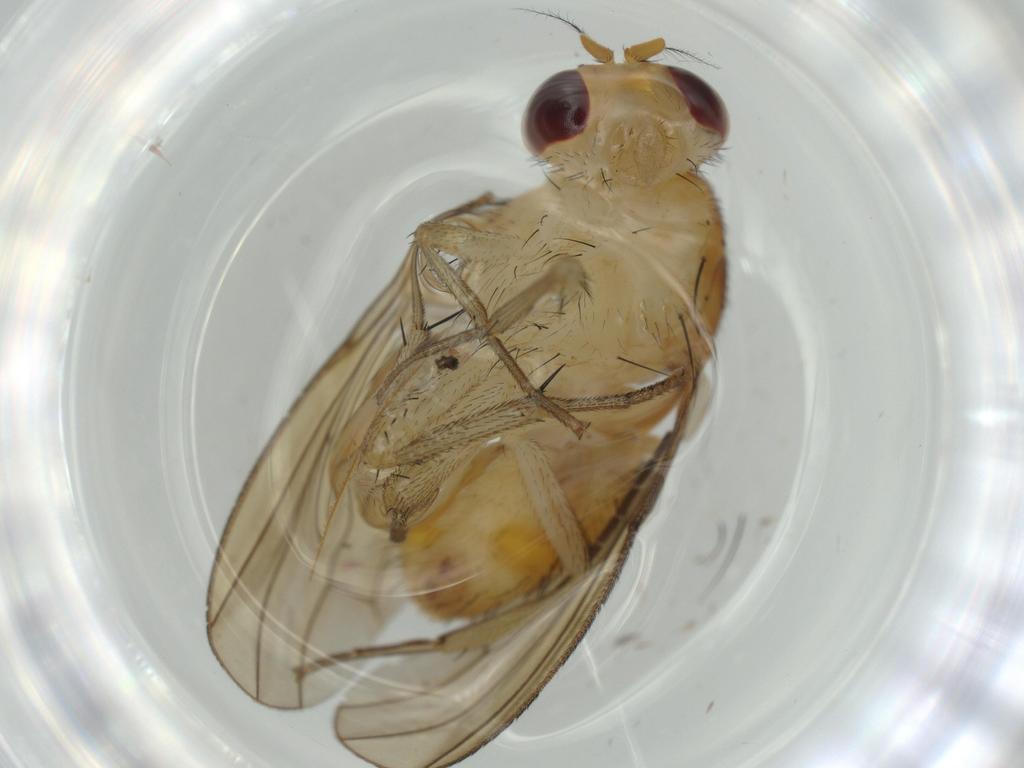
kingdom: Animalia
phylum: Arthropoda
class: Insecta
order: Diptera
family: Stratiomyidae
